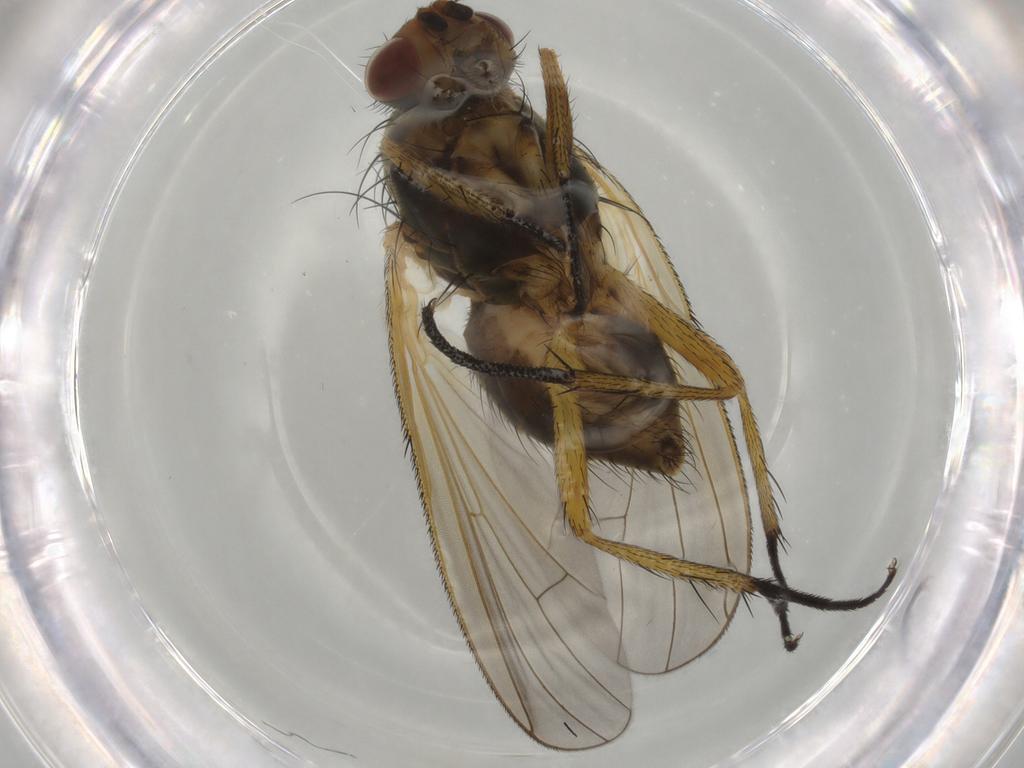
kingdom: Animalia
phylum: Arthropoda
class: Insecta
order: Diptera
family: Anthomyiidae
